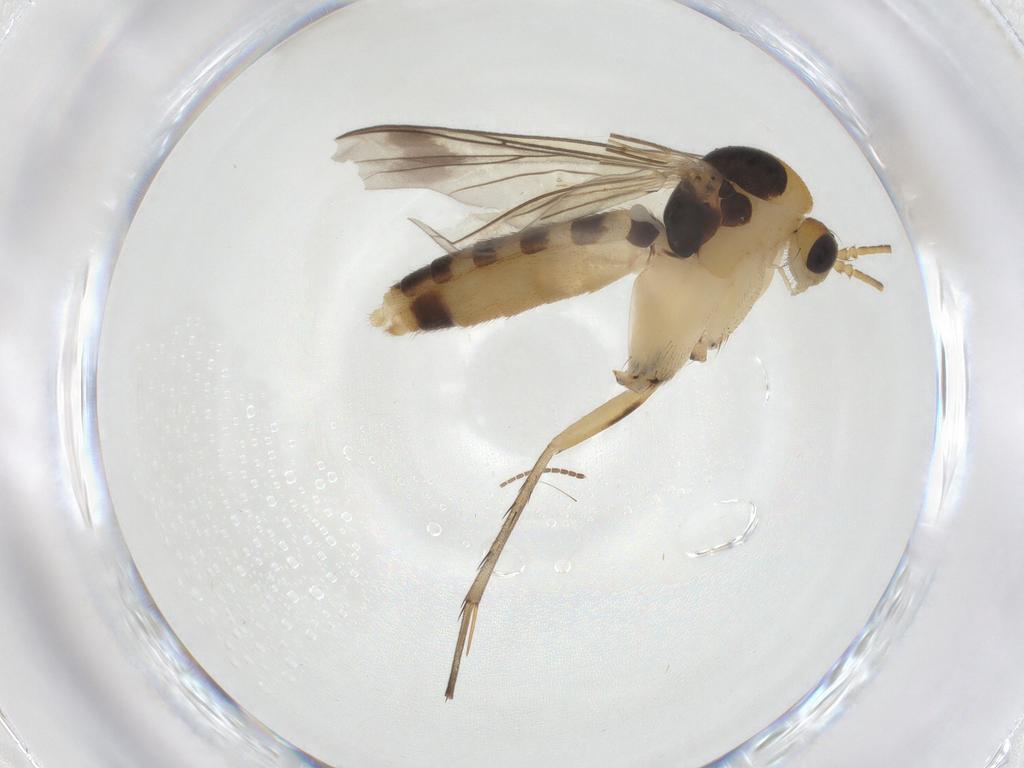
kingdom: Animalia
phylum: Arthropoda
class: Insecta
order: Diptera
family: Mycetophilidae
